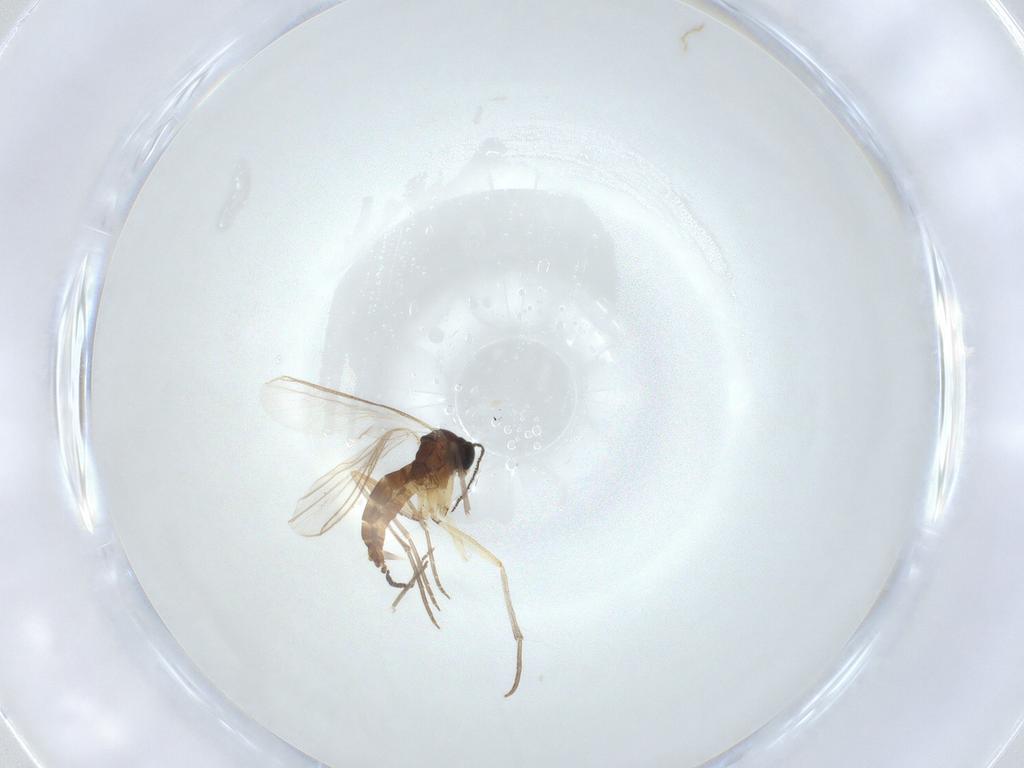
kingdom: Animalia
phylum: Arthropoda
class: Insecta
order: Diptera
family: Sciaridae
